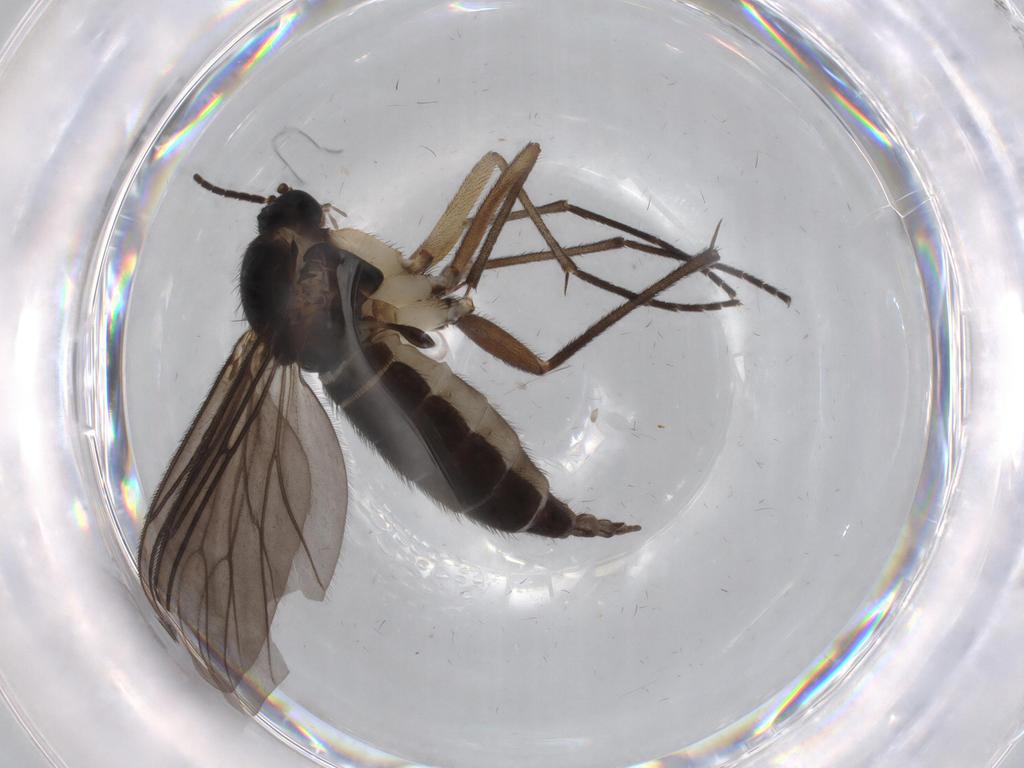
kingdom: Animalia
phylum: Arthropoda
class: Insecta
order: Diptera
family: Sciaridae
